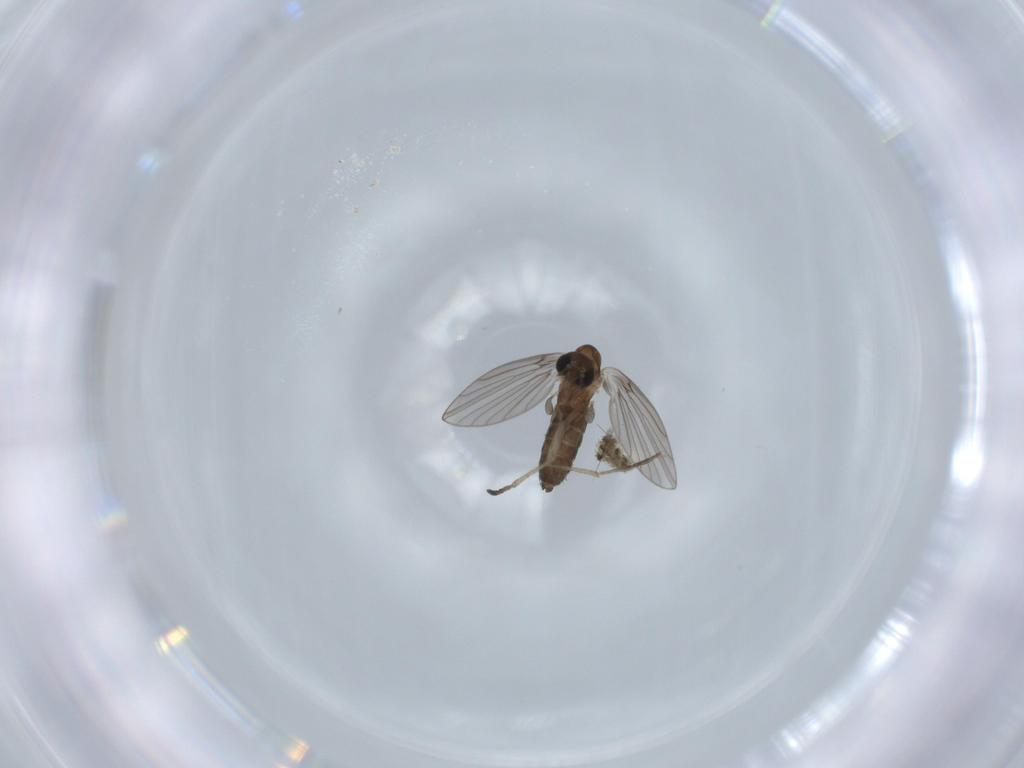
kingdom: Animalia
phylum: Arthropoda
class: Insecta
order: Diptera
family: Psychodidae
